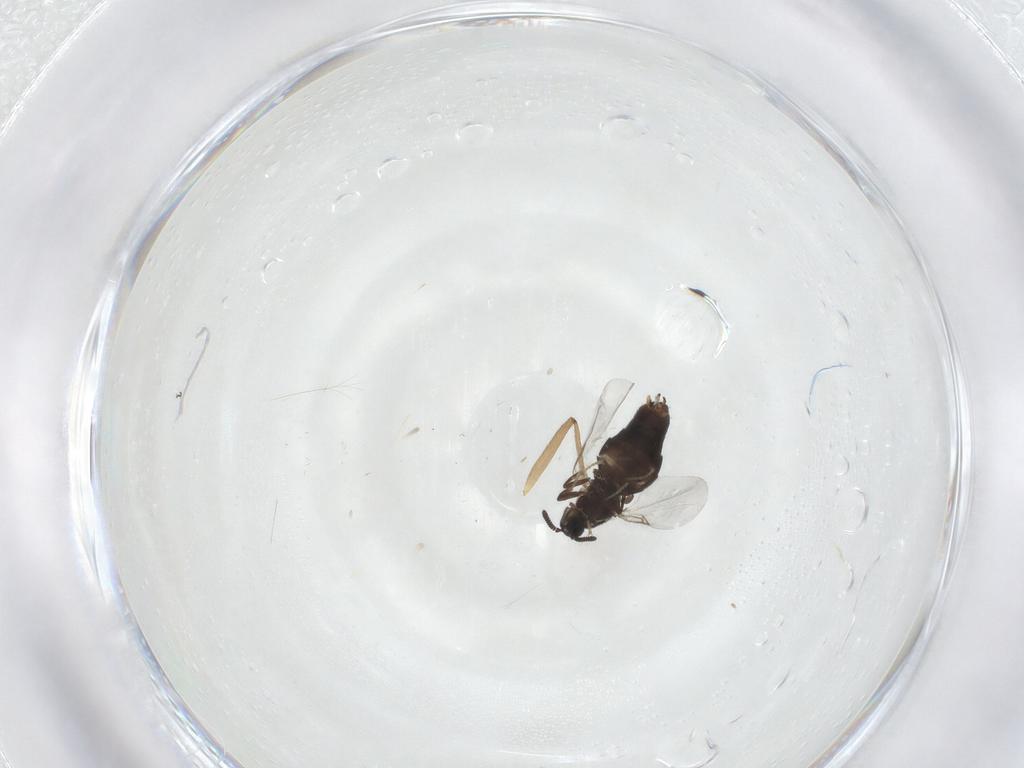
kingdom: Animalia
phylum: Arthropoda
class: Insecta
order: Diptera
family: Scatopsidae
